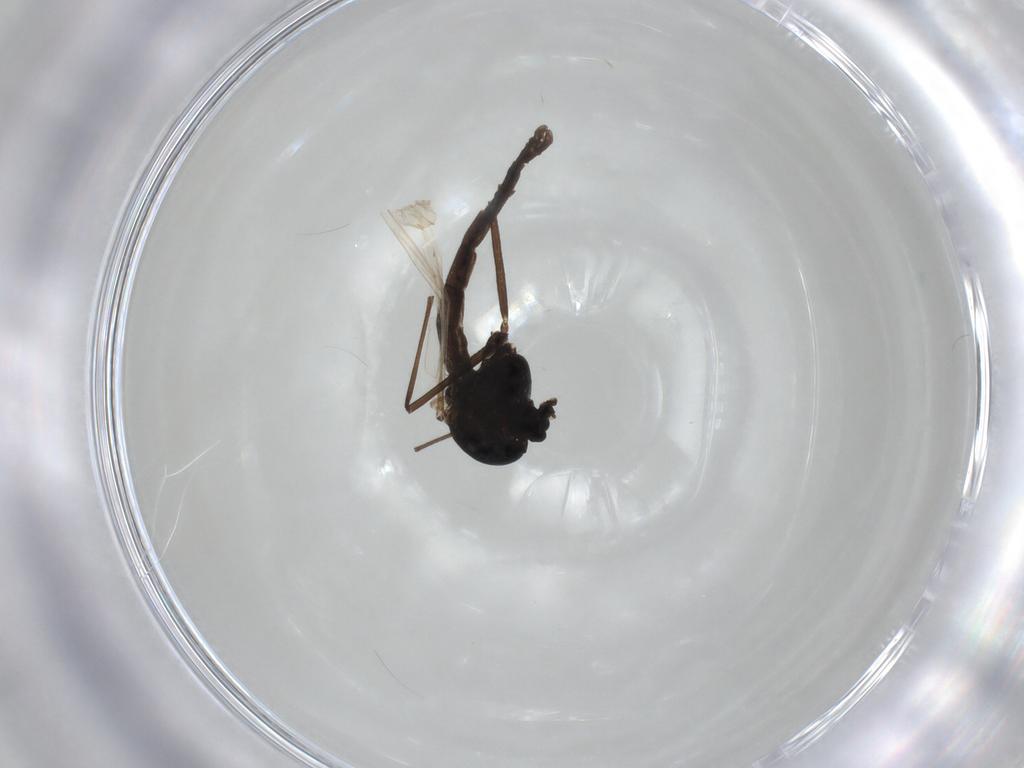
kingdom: Animalia
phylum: Arthropoda
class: Insecta
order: Diptera
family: Chironomidae
